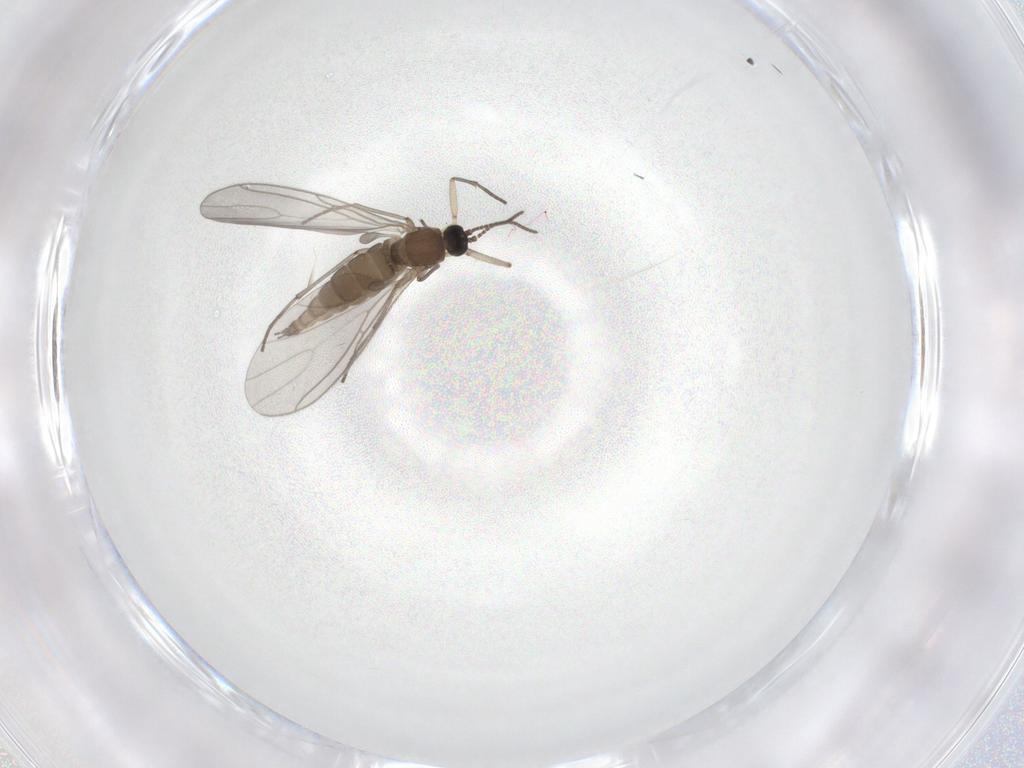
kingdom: Animalia
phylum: Arthropoda
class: Insecta
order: Diptera
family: Sciaridae
